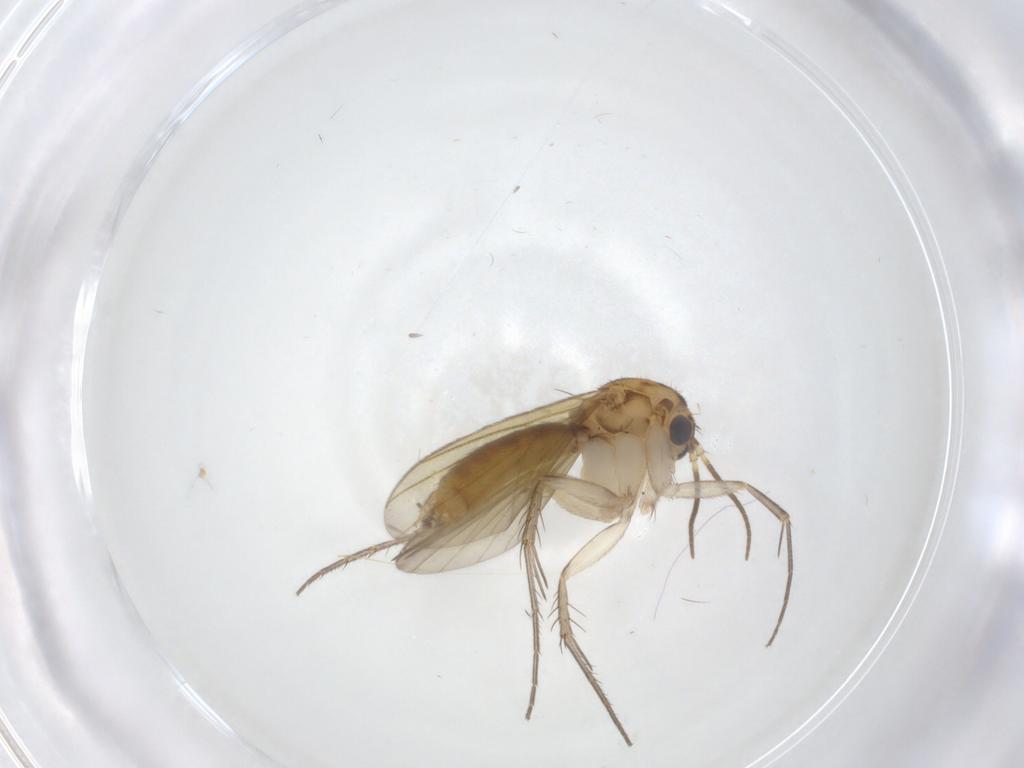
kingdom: Animalia
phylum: Arthropoda
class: Insecta
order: Diptera
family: Mycetophilidae
